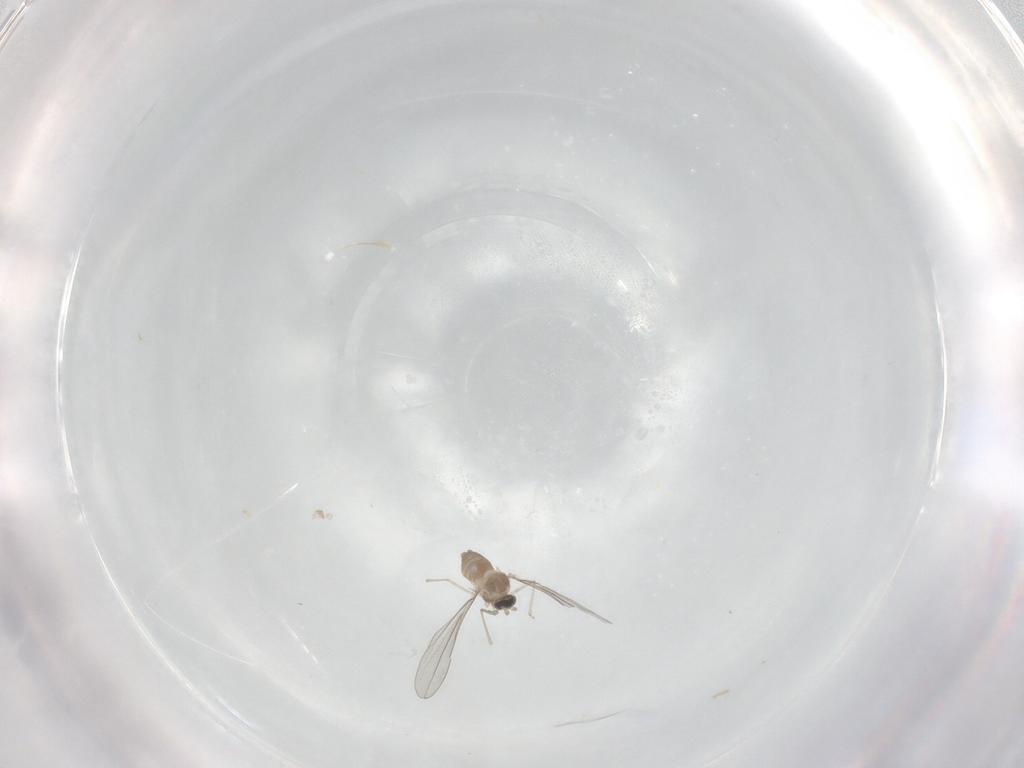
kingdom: Animalia
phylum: Arthropoda
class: Insecta
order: Diptera
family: Cecidomyiidae
